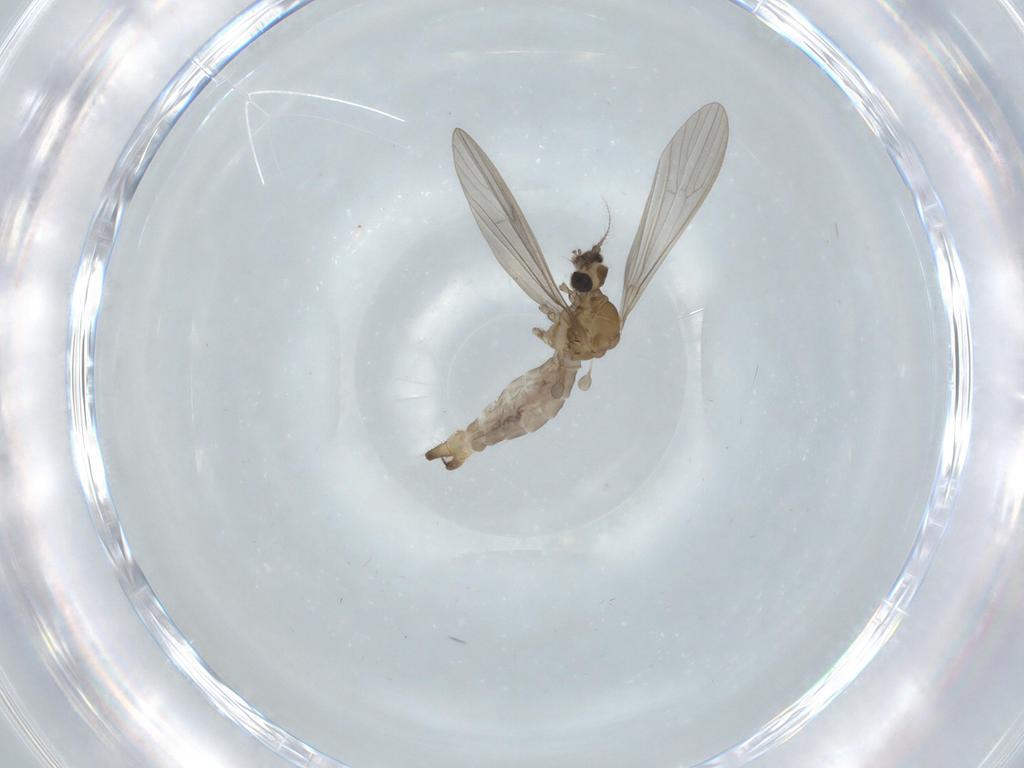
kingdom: Animalia
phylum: Arthropoda
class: Insecta
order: Diptera
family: Limoniidae
